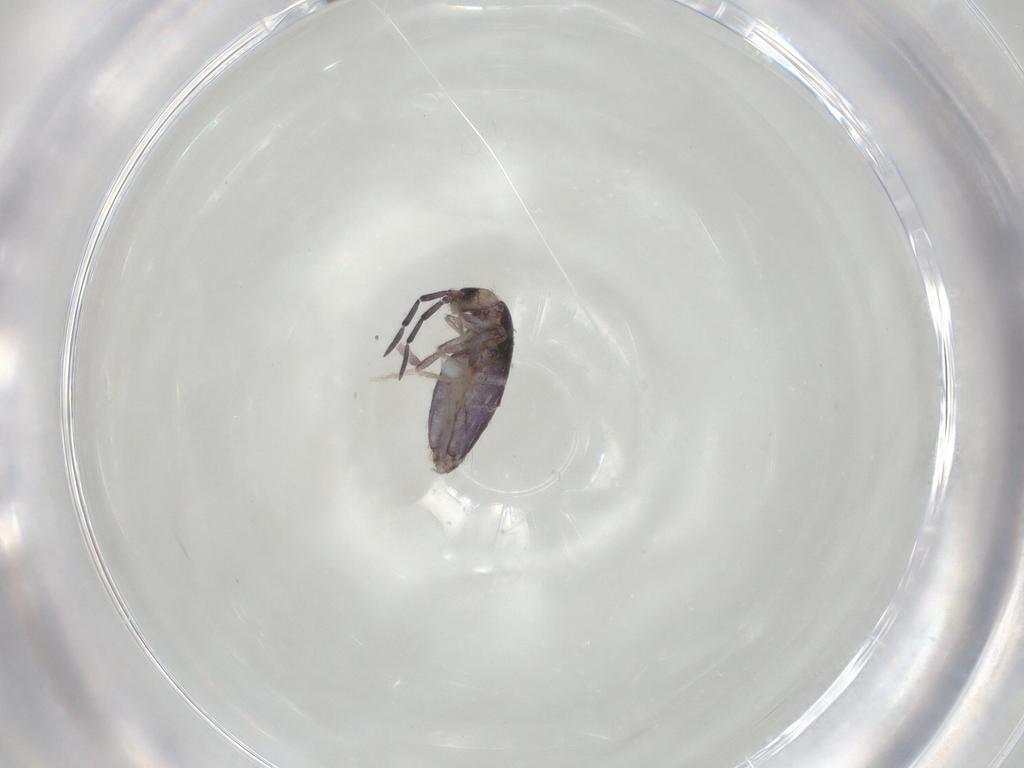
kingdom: Animalia
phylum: Arthropoda
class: Collembola
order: Entomobryomorpha
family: Entomobryidae
